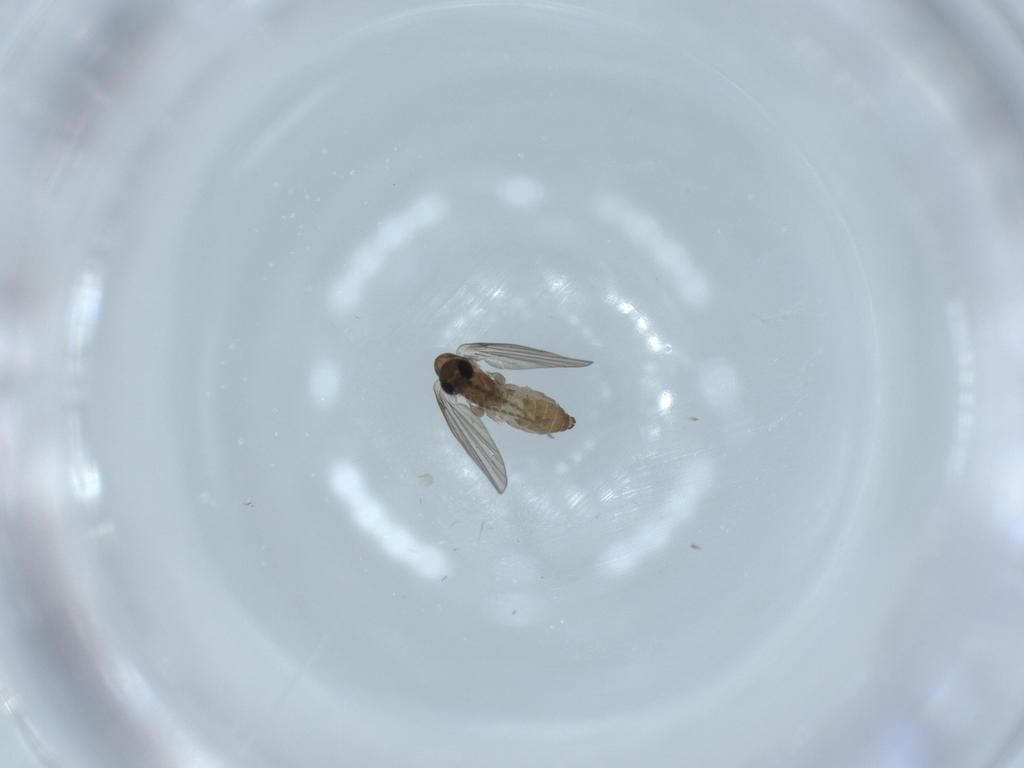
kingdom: Animalia
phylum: Arthropoda
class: Insecta
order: Diptera
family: Psychodidae
